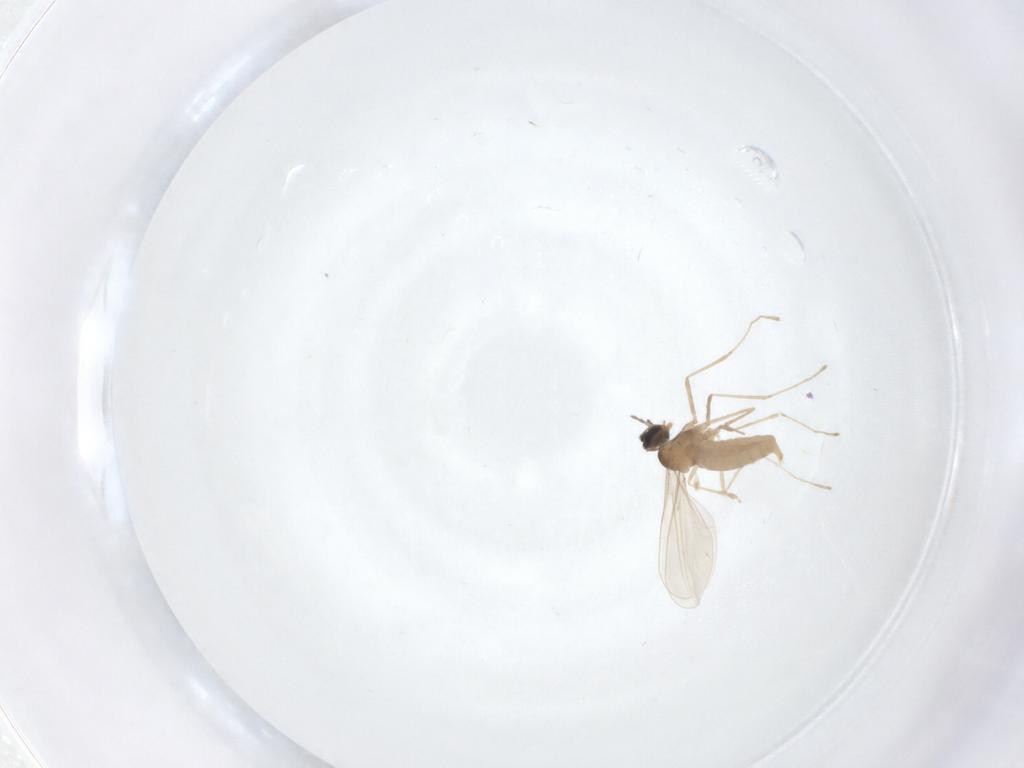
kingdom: Animalia
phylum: Arthropoda
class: Insecta
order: Diptera
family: Cecidomyiidae
